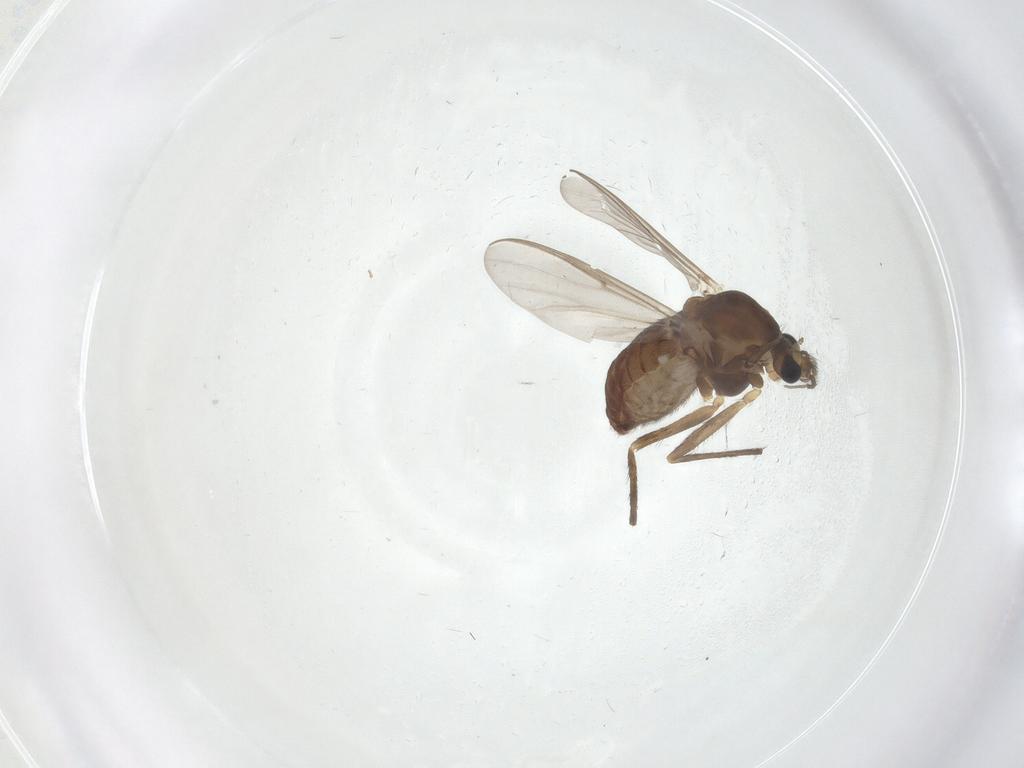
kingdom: Animalia
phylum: Arthropoda
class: Insecta
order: Diptera
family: Chironomidae
